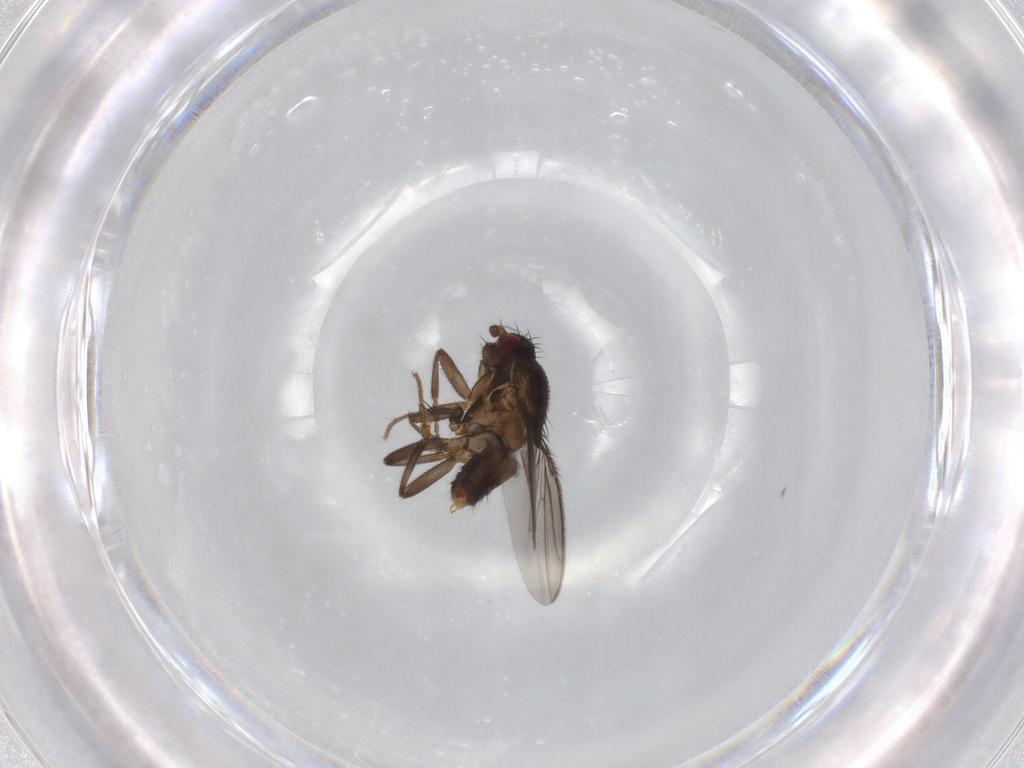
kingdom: Animalia
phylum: Arthropoda
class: Insecta
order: Diptera
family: Sphaeroceridae
